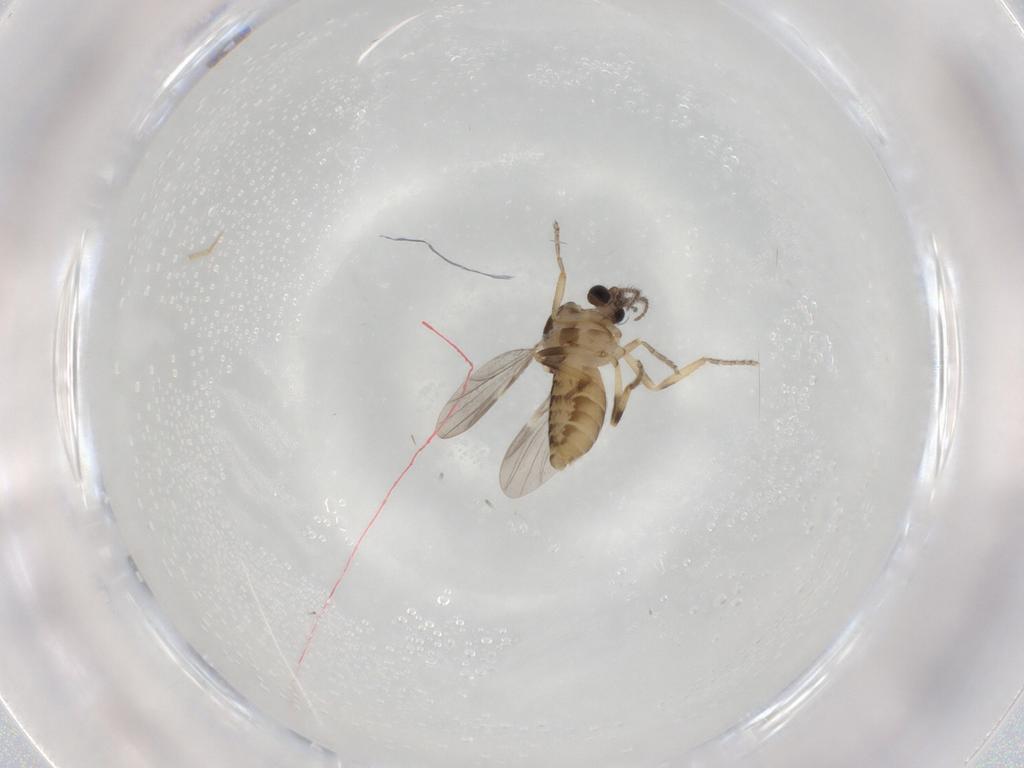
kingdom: Animalia
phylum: Arthropoda
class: Insecta
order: Diptera
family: Ceratopogonidae
